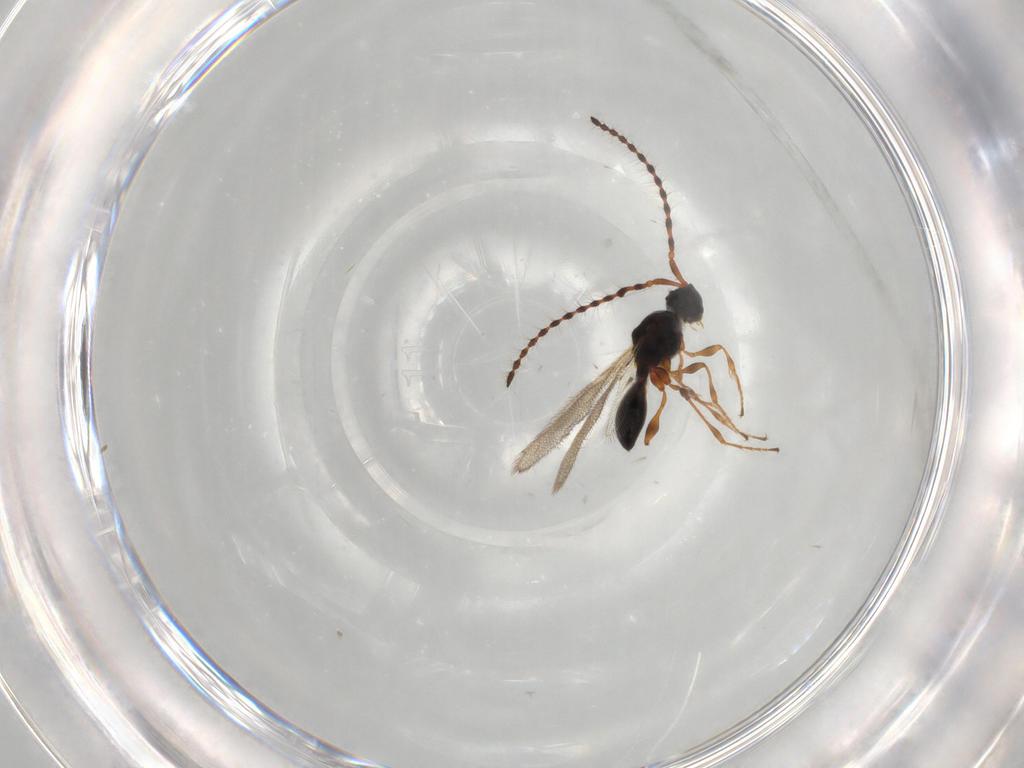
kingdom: Animalia
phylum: Arthropoda
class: Insecta
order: Hymenoptera
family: Diapriidae
